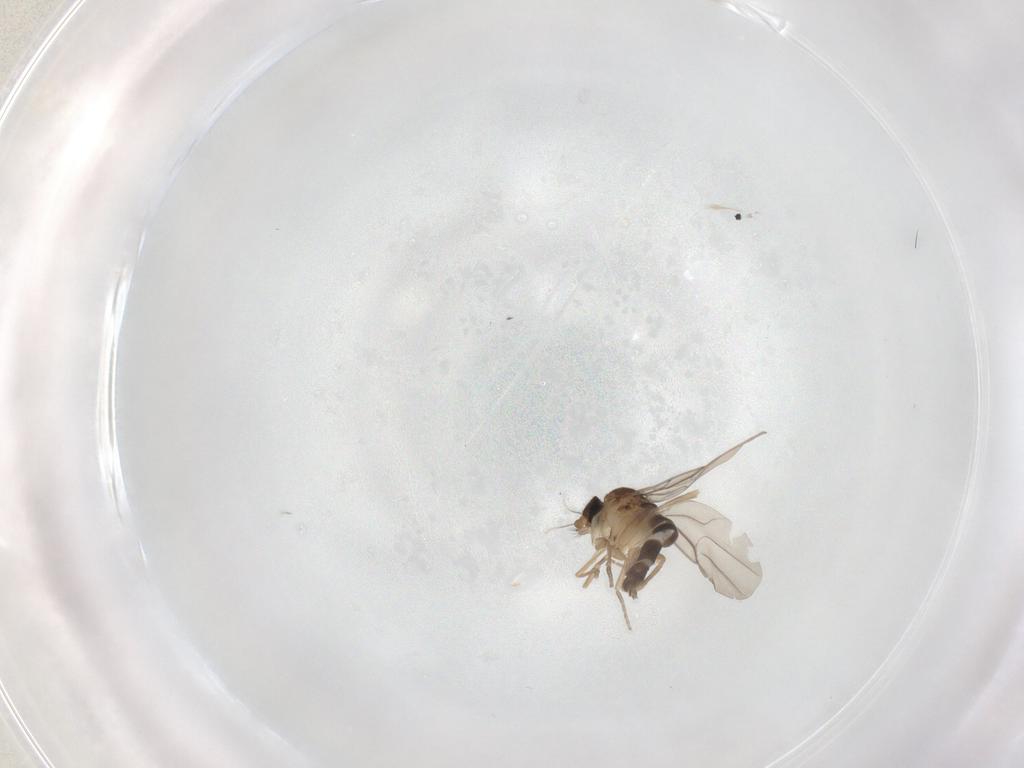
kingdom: Animalia
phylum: Arthropoda
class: Insecta
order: Diptera
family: Phoridae
